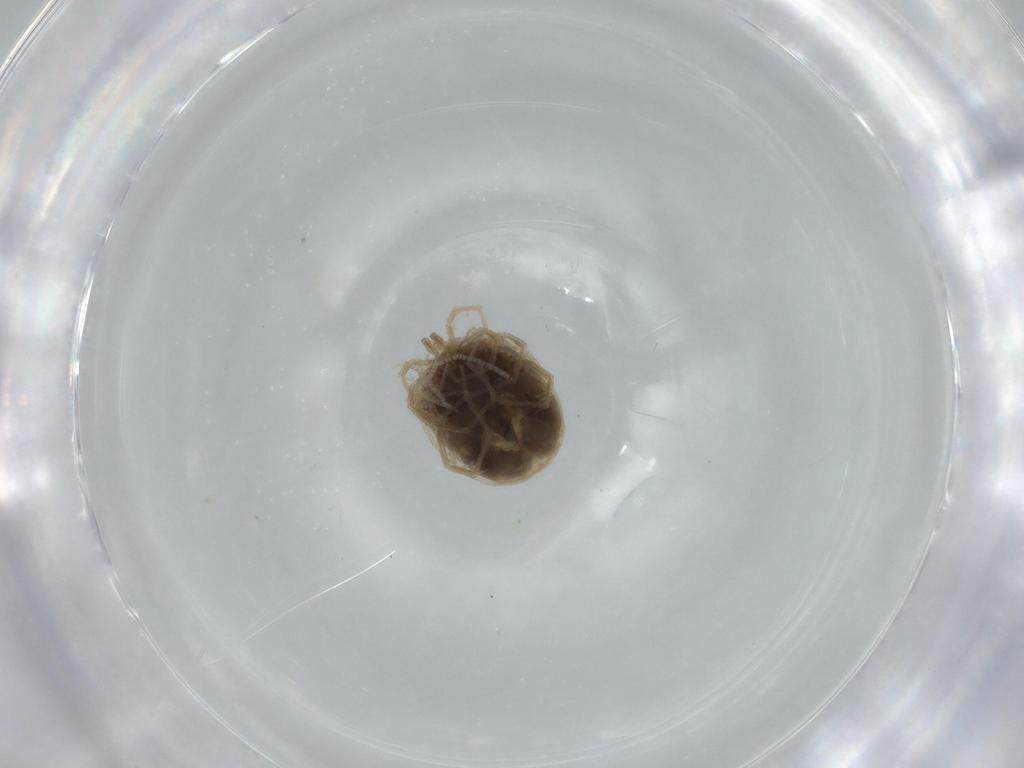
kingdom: Animalia
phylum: Arthropoda
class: Arachnida
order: Trombidiformes
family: Hygrobatidae
